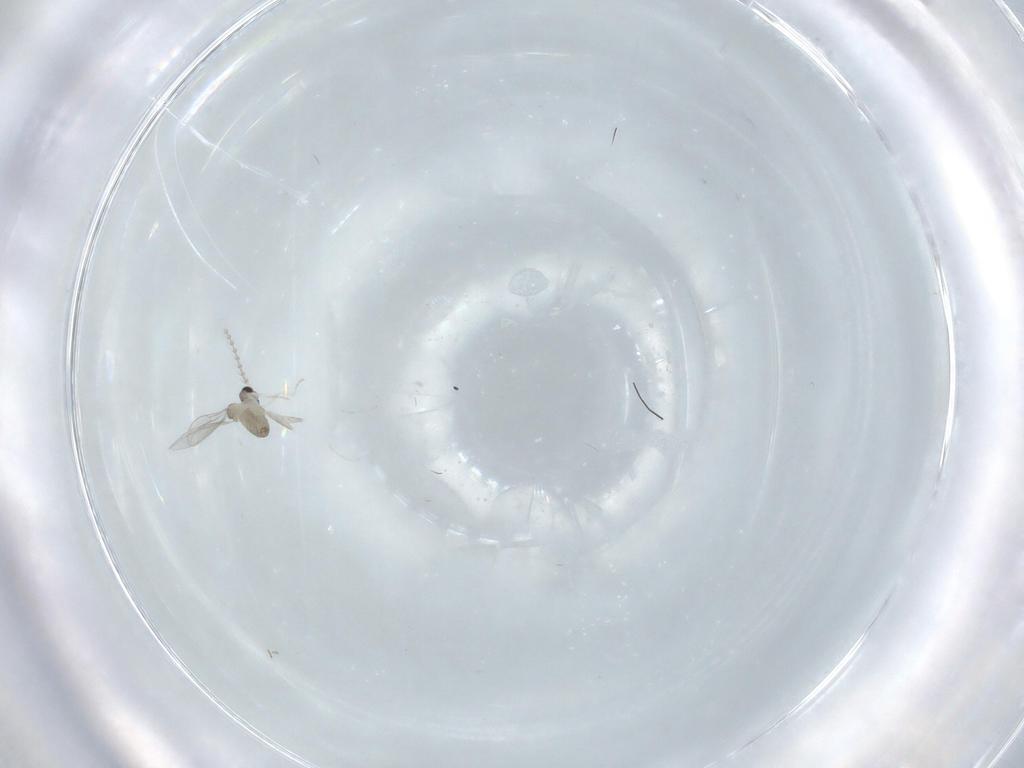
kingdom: Animalia
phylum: Arthropoda
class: Insecta
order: Diptera
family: Cecidomyiidae
